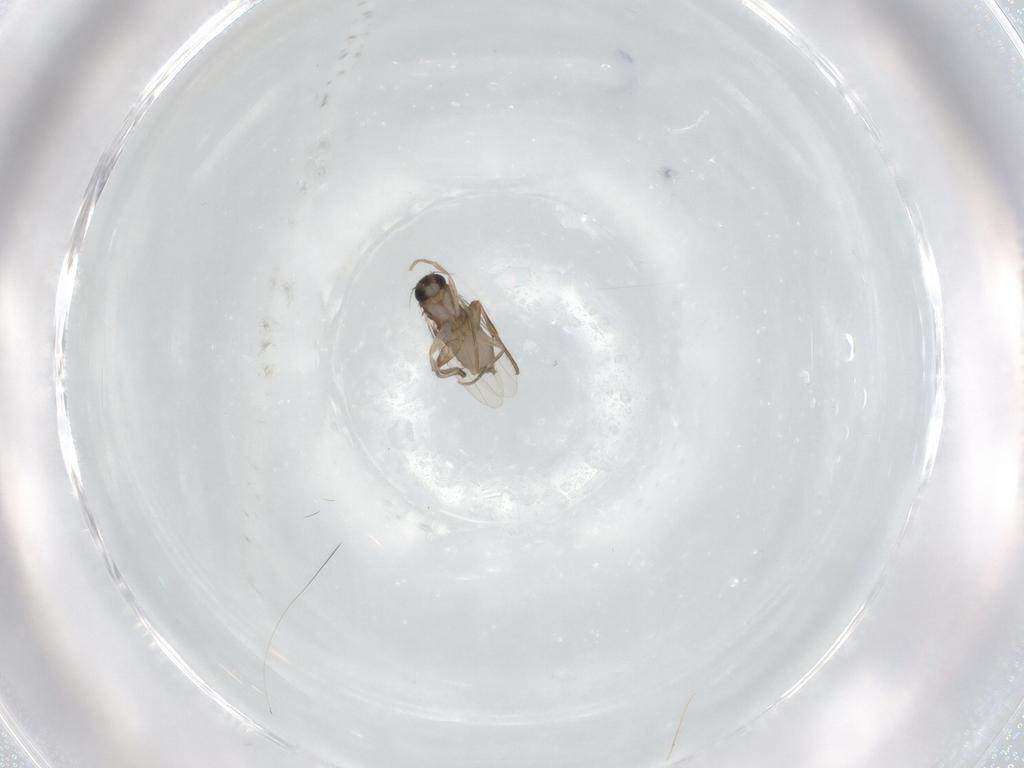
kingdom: Animalia
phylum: Arthropoda
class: Insecta
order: Diptera
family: Phoridae
